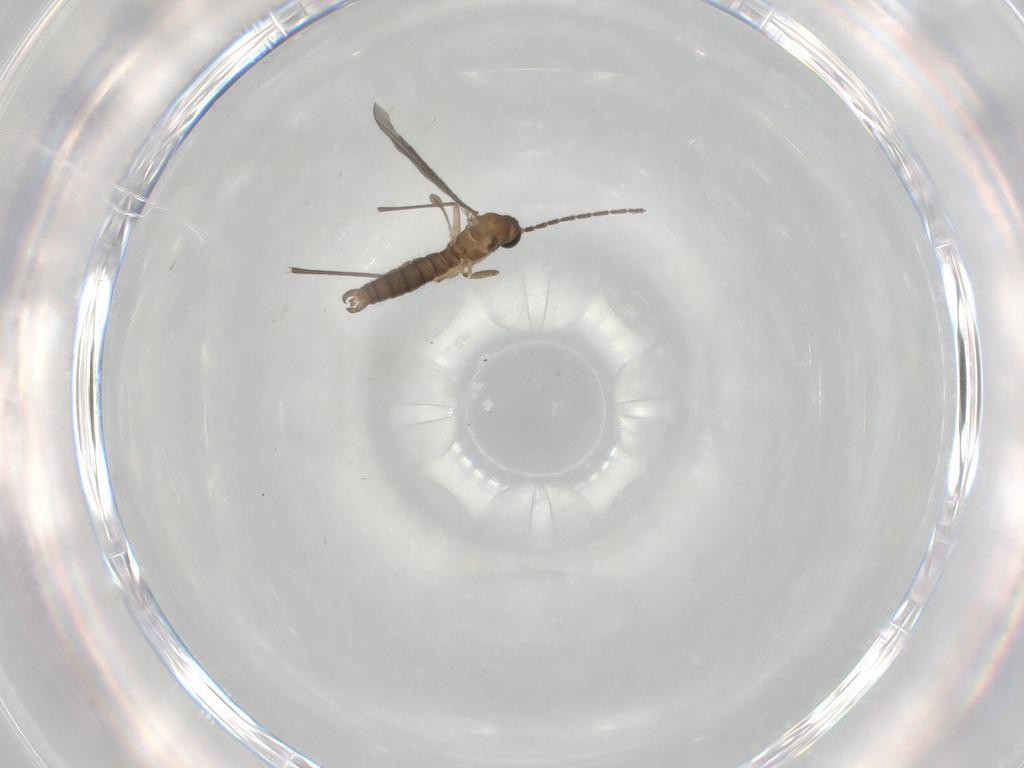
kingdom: Animalia
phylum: Arthropoda
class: Insecta
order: Diptera
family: Sciaridae
